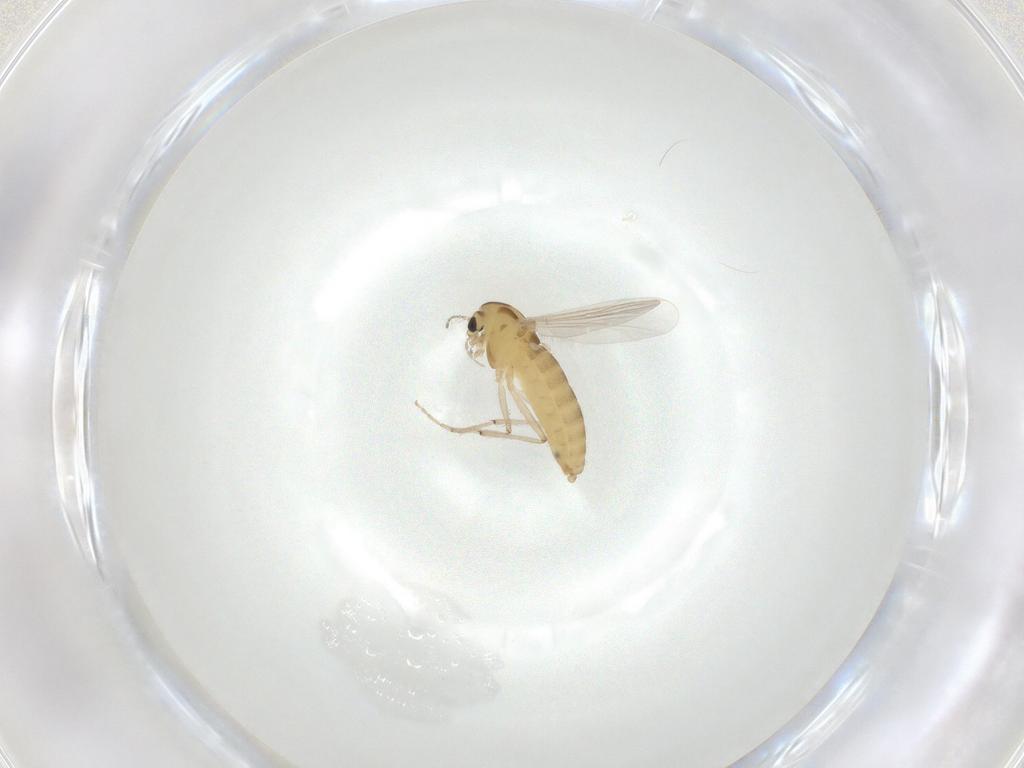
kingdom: Animalia
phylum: Arthropoda
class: Insecta
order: Diptera
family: Chironomidae
